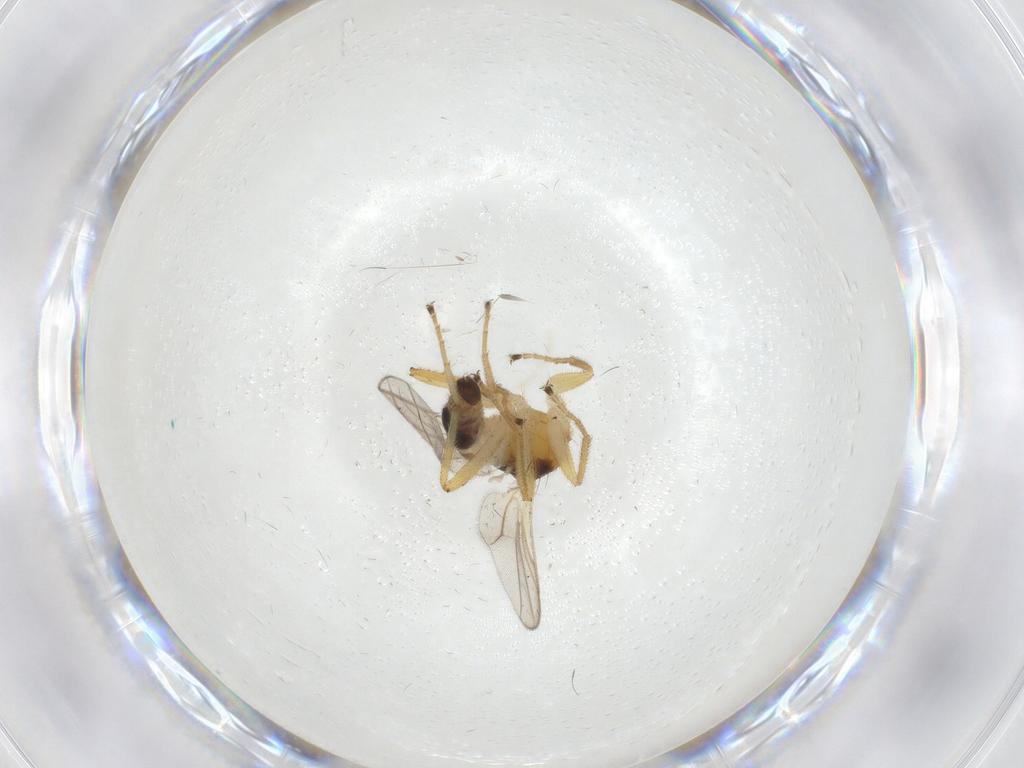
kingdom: Animalia
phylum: Arthropoda
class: Insecta
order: Diptera
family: Hybotidae
